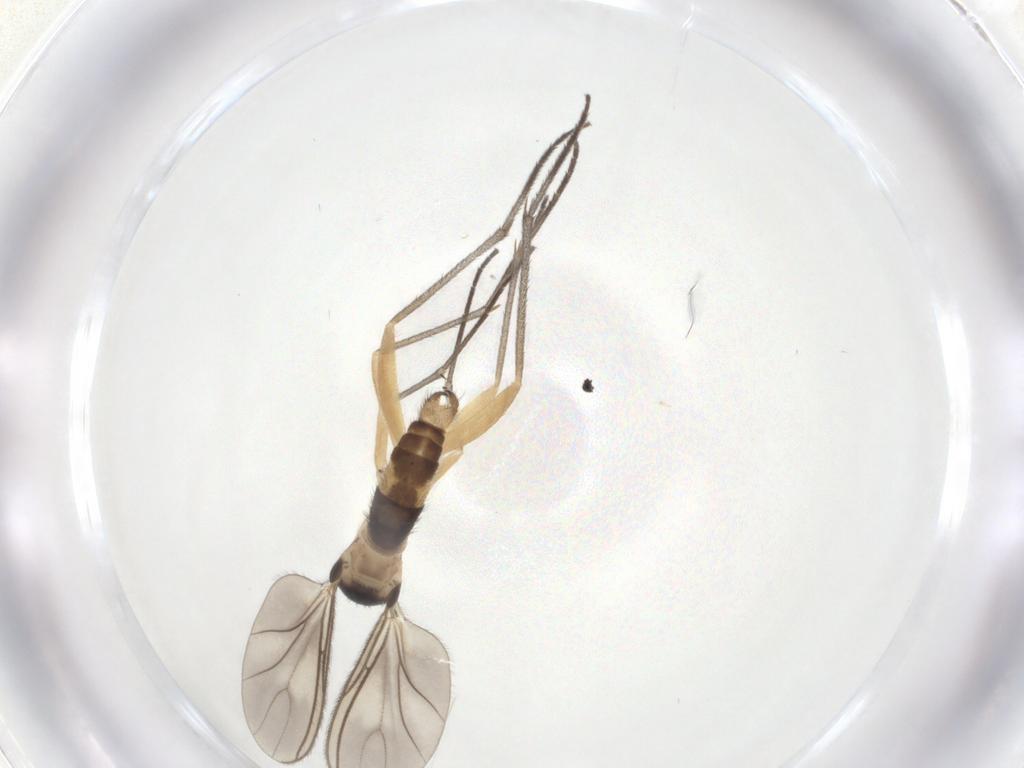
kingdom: Animalia
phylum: Arthropoda
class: Insecta
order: Diptera
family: Sciaridae
